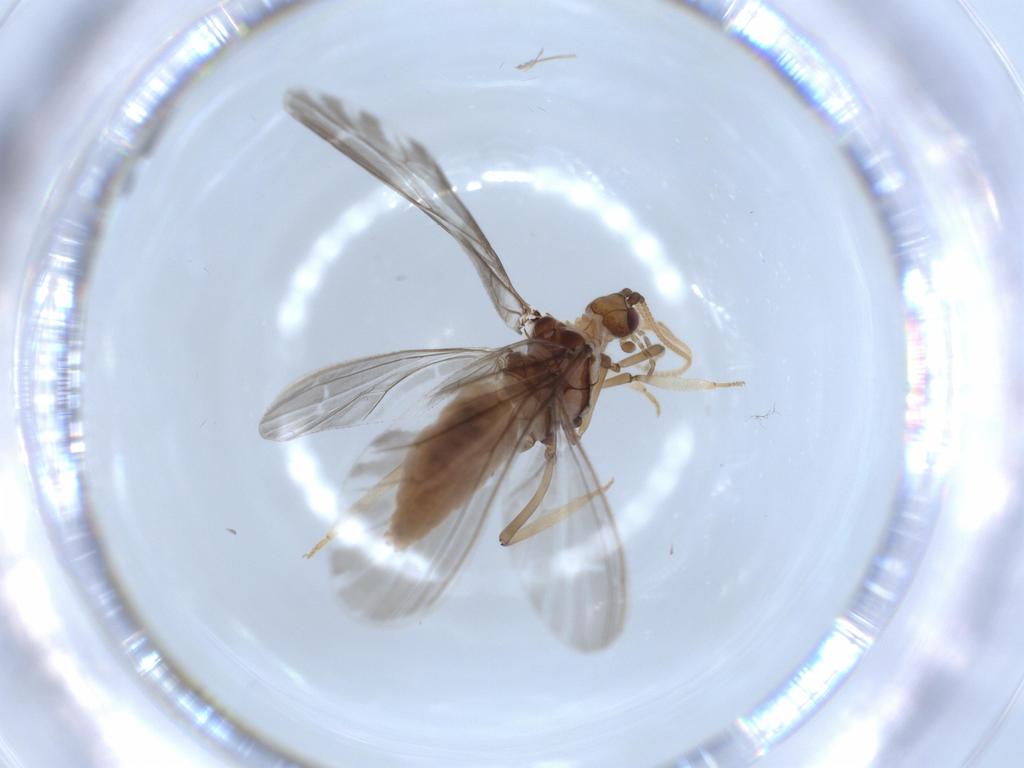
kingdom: Animalia
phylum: Arthropoda
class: Insecta
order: Neuroptera
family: Coniopterygidae
